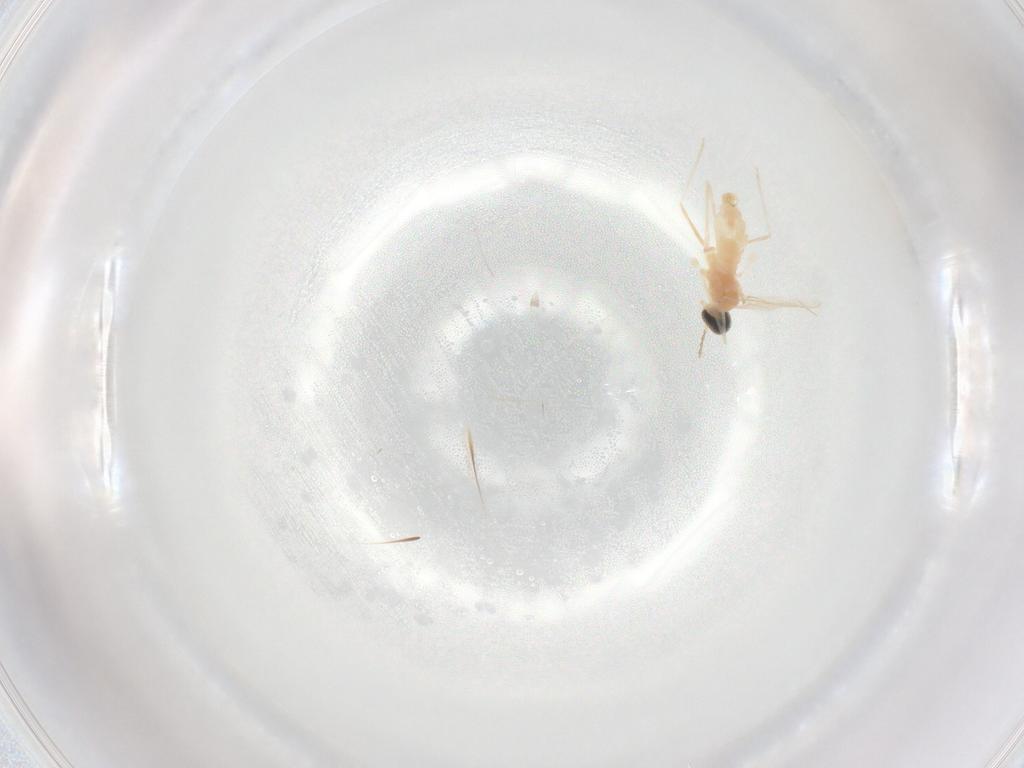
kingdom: Animalia
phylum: Arthropoda
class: Insecta
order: Diptera
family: Cecidomyiidae
